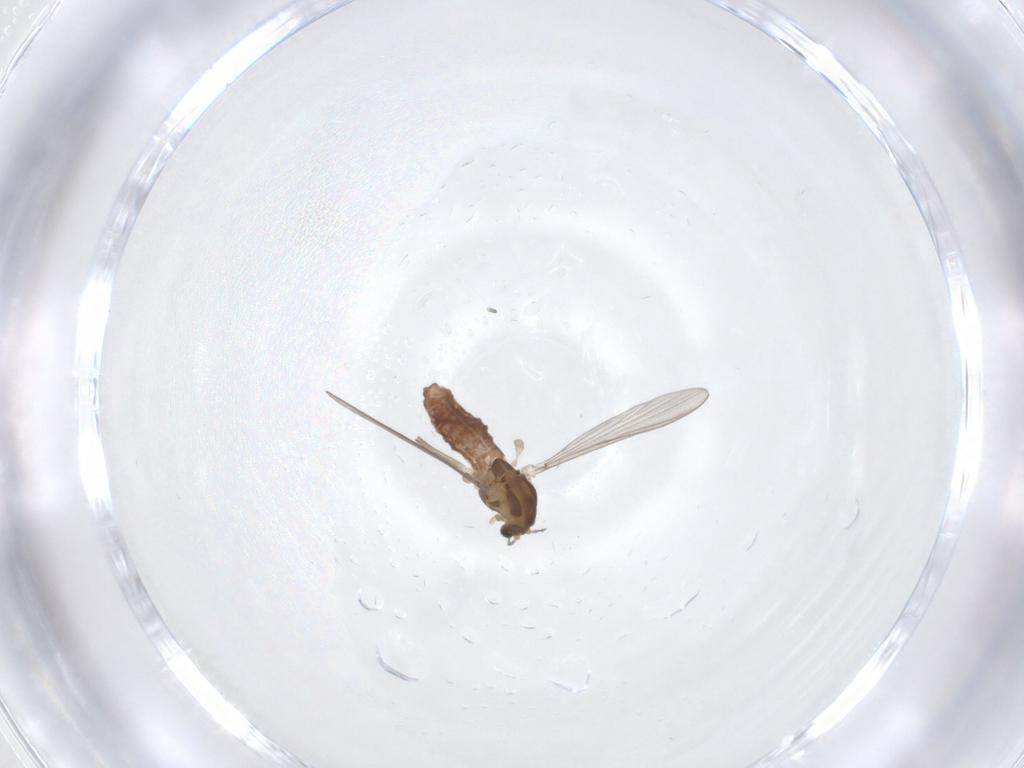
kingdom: Animalia
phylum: Arthropoda
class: Insecta
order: Diptera
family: Chironomidae
